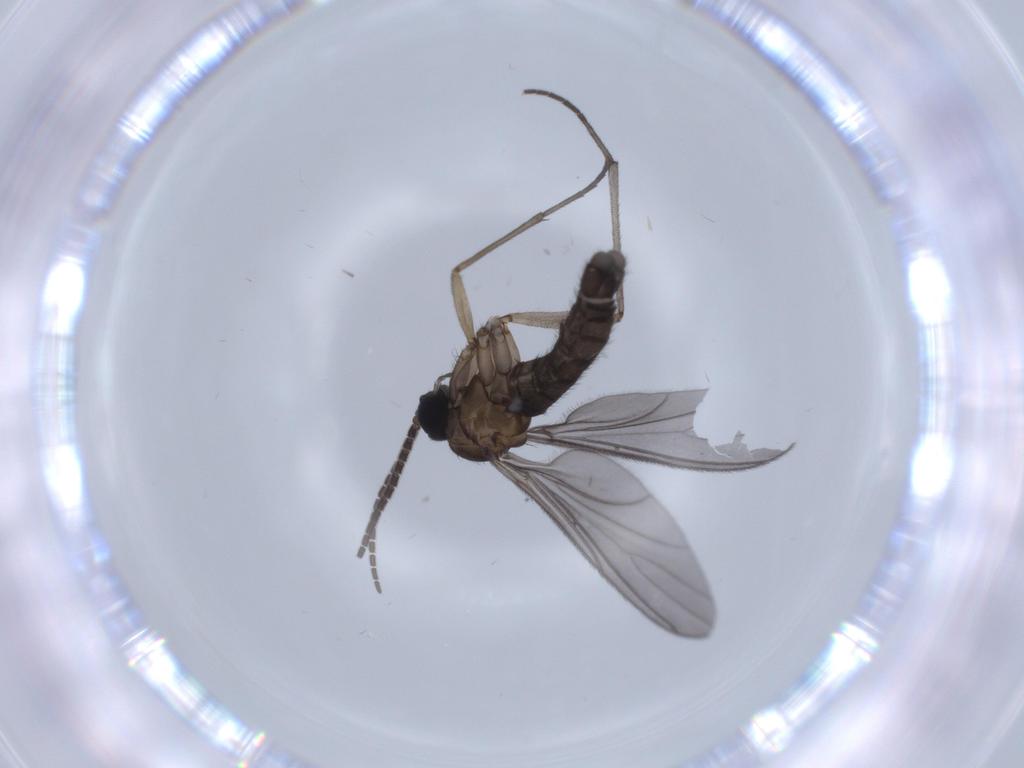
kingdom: Animalia
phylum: Arthropoda
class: Insecta
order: Diptera
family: Sciaridae
